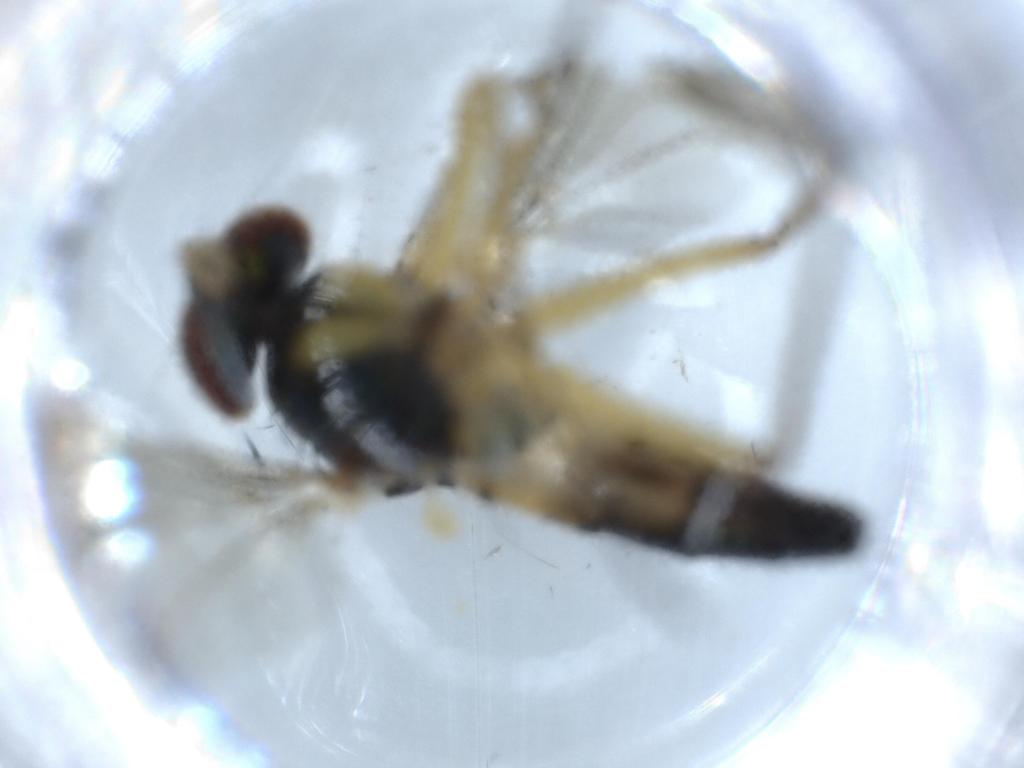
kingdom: Animalia
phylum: Arthropoda
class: Insecta
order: Diptera
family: Dolichopodidae
